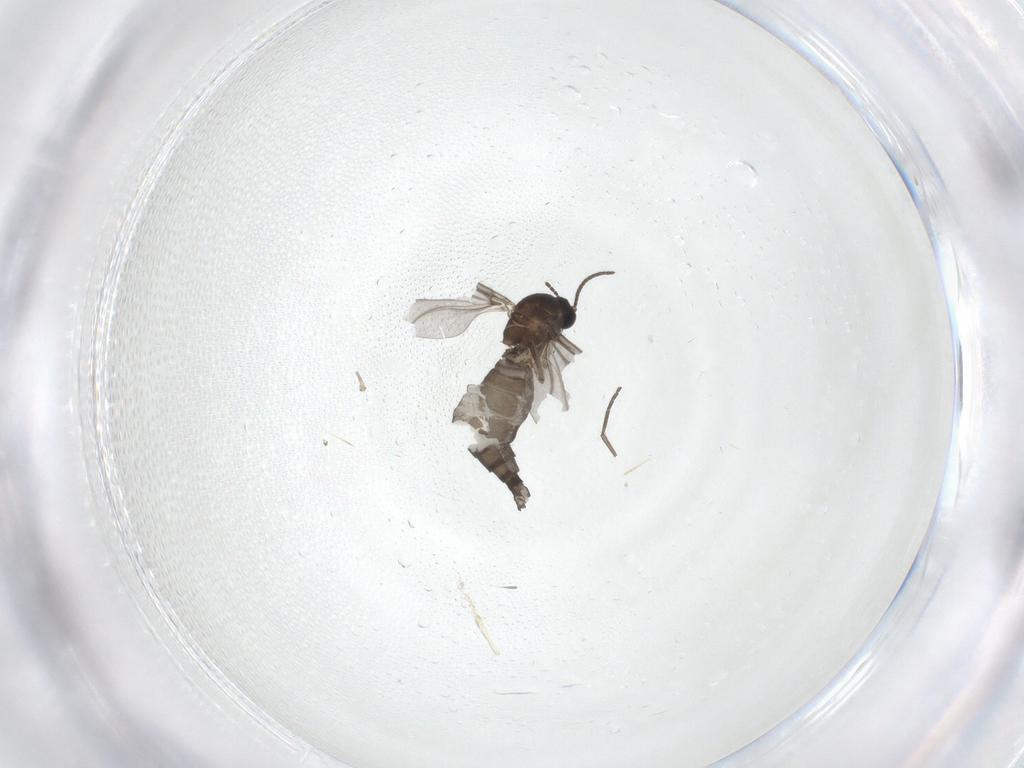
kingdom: Animalia
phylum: Arthropoda
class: Insecta
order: Diptera
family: Sciaridae
